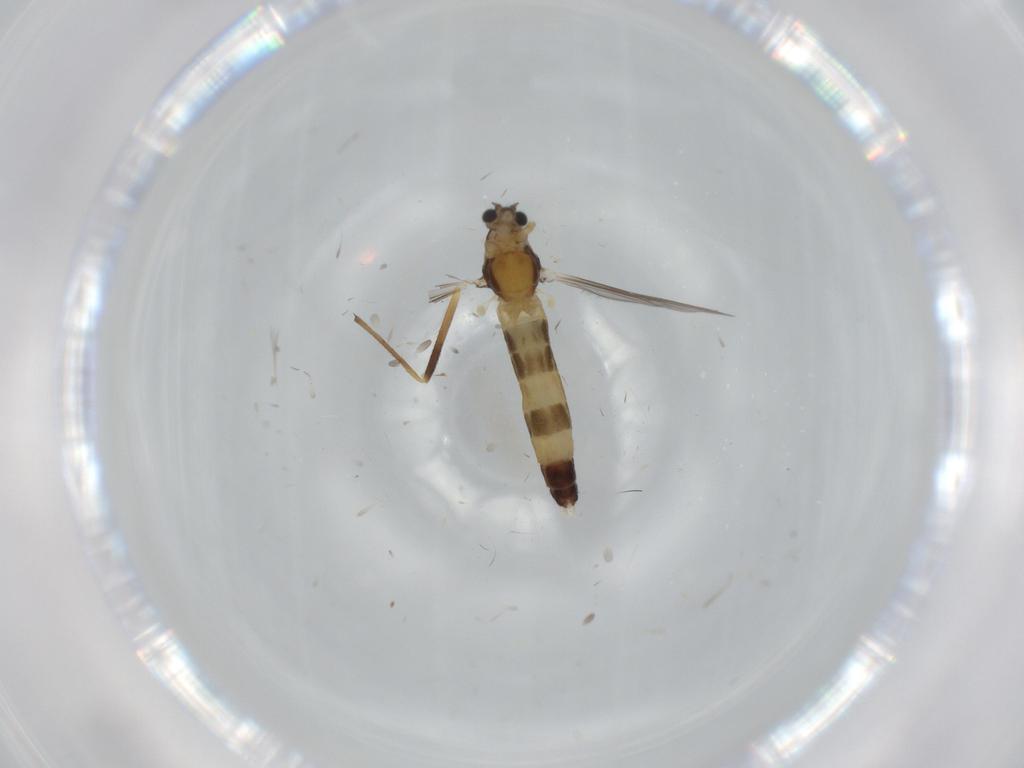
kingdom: Animalia
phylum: Arthropoda
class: Insecta
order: Diptera
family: Chironomidae
